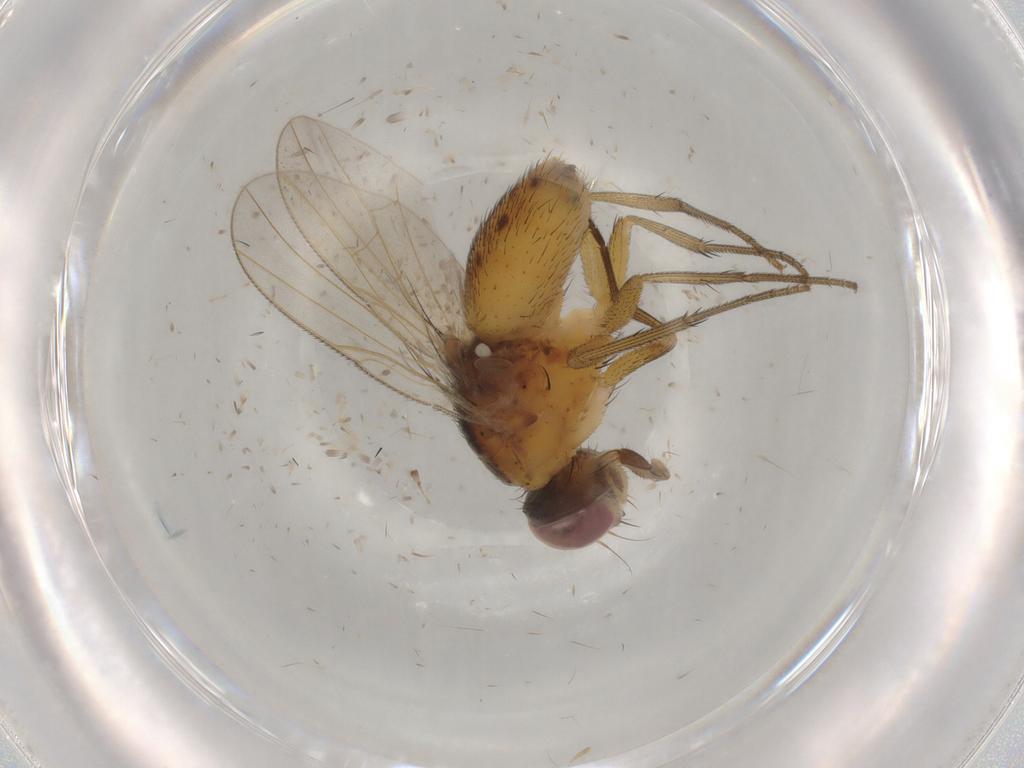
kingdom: Animalia
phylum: Arthropoda
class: Insecta
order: Diptera
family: Muscidae
